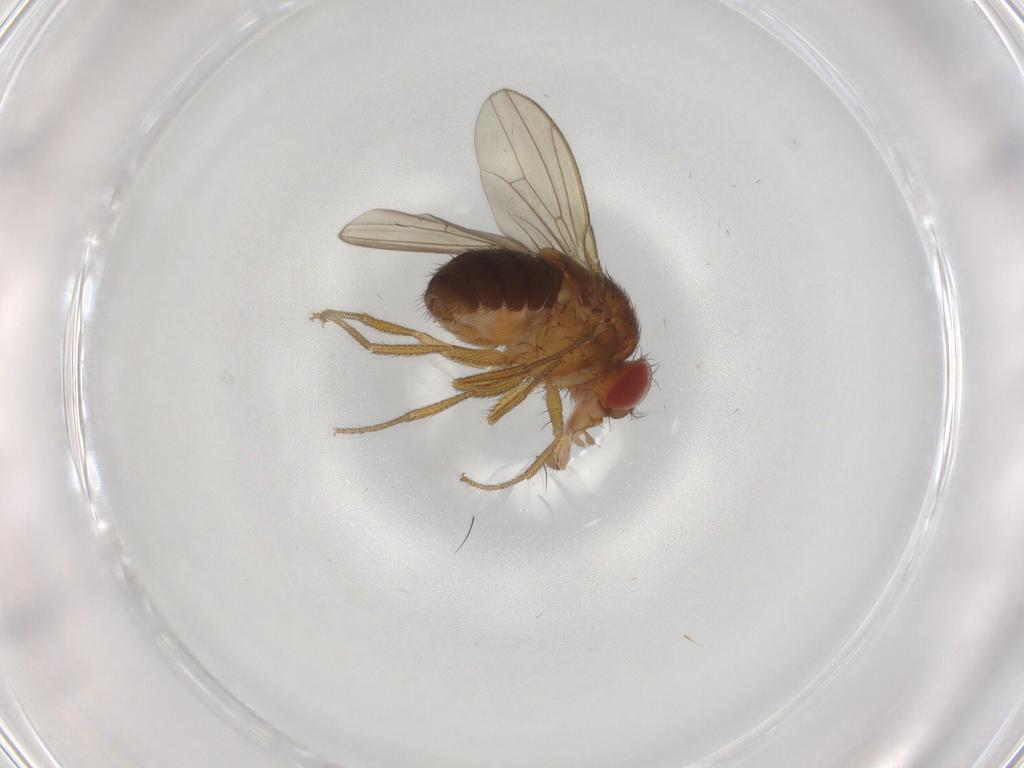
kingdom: Animalia
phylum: Arthropoda
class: Insecta
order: Diptera
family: Drosophilidae
